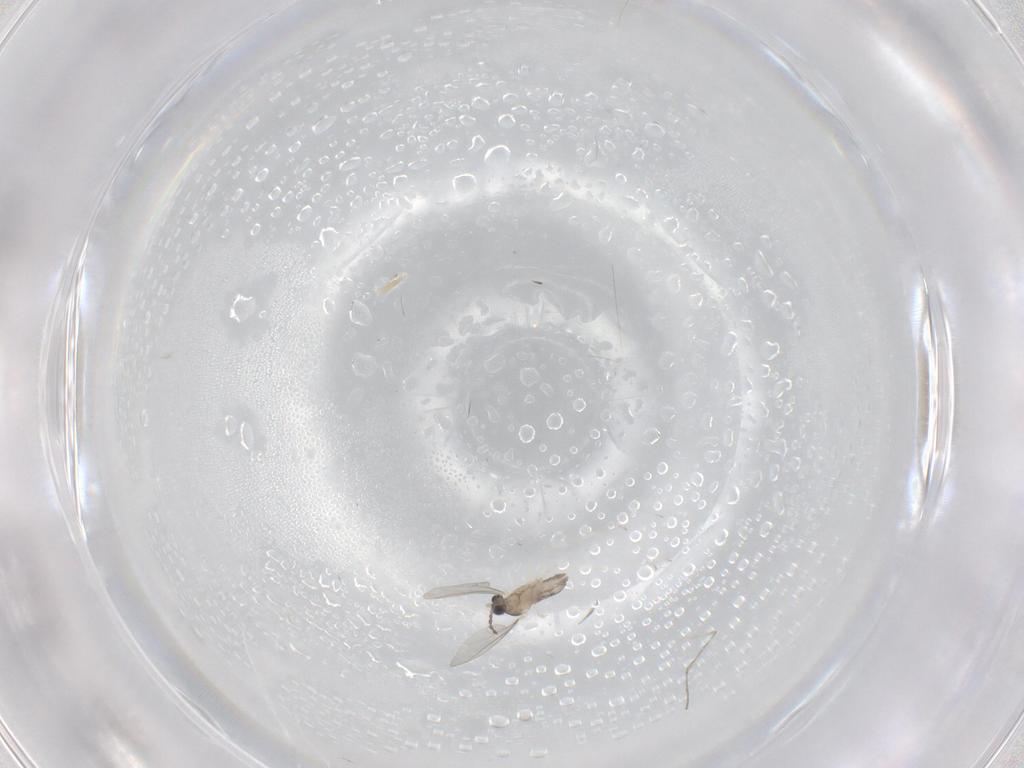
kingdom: Animalia
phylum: Arthropoda
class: Insecta
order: Diptera
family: Cecidomyiidae
